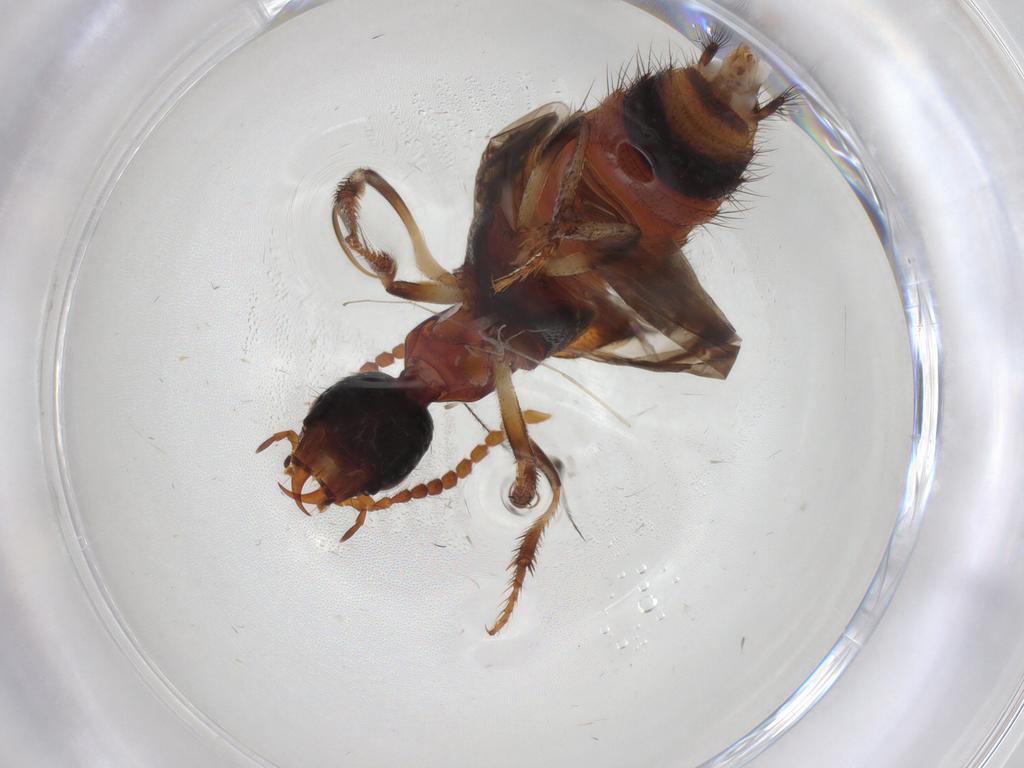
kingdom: Animalia
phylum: Arthropoda
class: Insecta
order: Coleoptera
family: Staphylinidae
